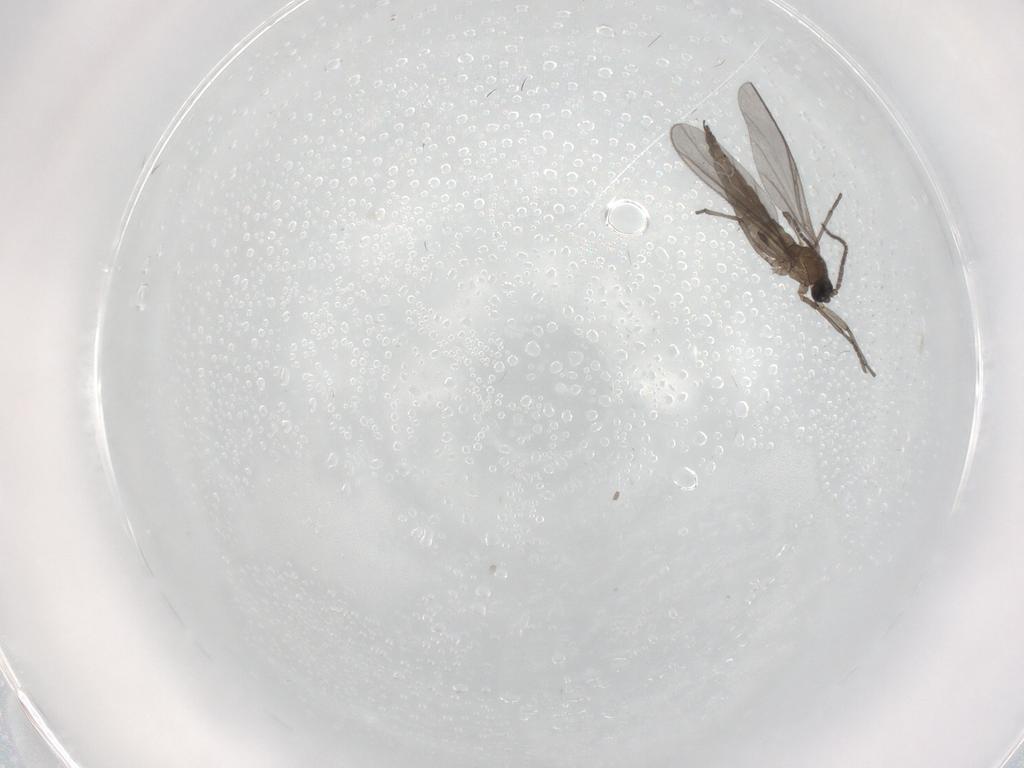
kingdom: Animalia
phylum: Arthropoda
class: Insecta
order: Diptera
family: Sciaridae
